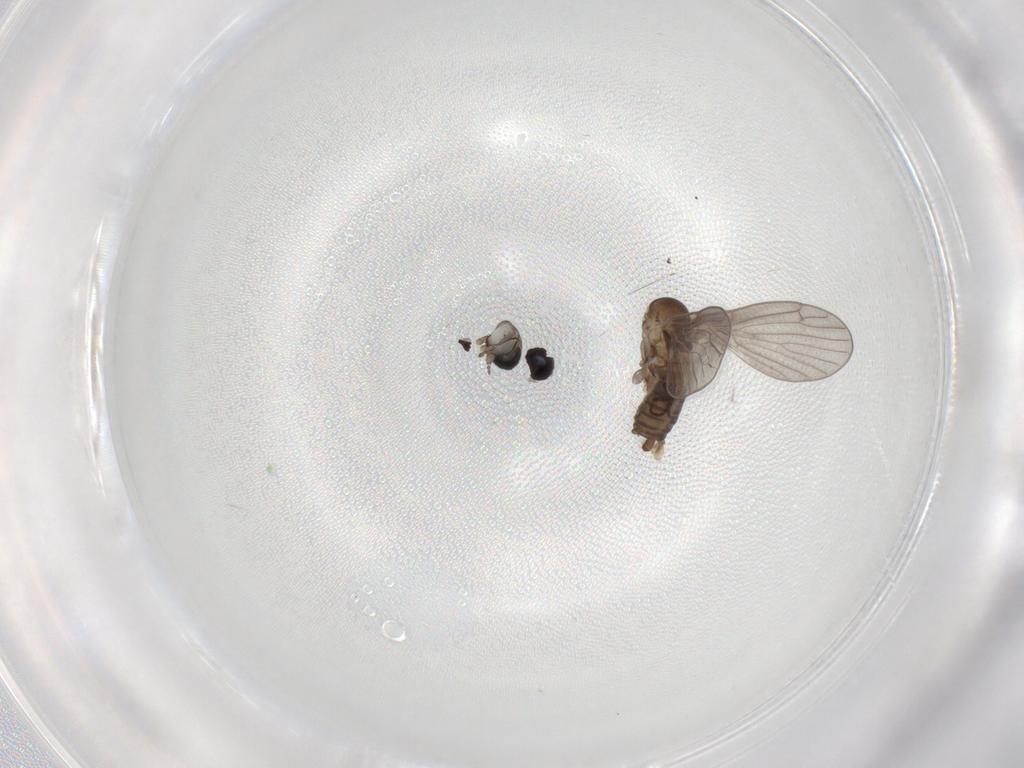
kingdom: Animalia
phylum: Arthropoda
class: Insecta
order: Diptera
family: Psychodidae
